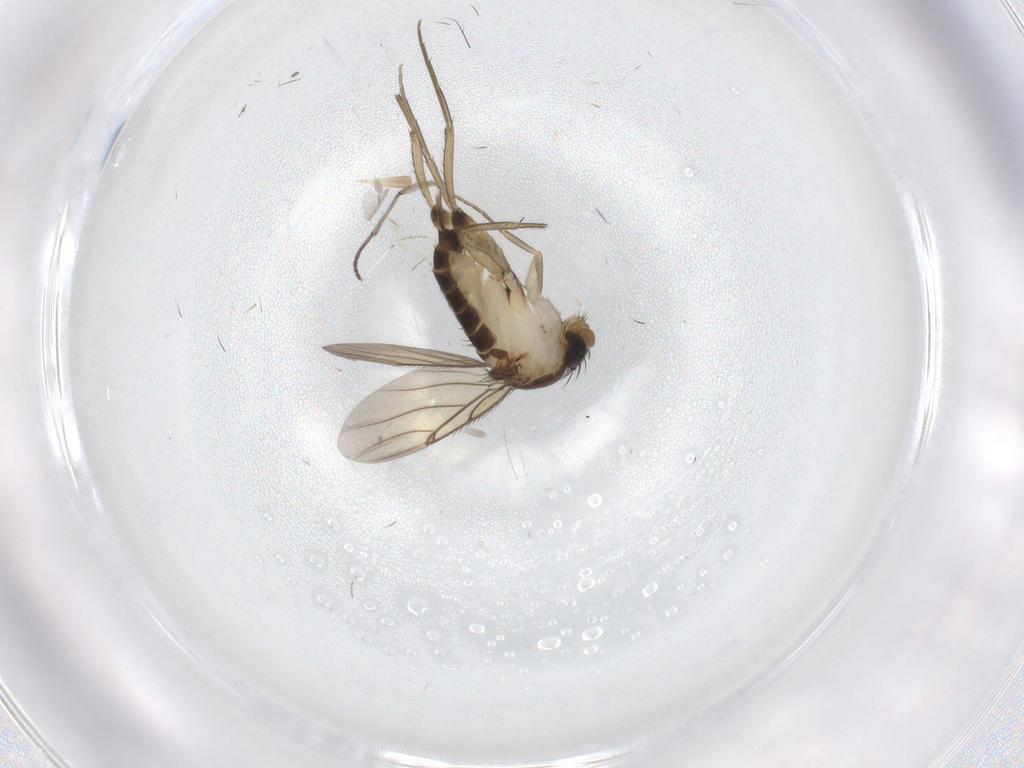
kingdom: Animalia
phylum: Arthropoda
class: Insecta
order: Diptera
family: Phoridae
